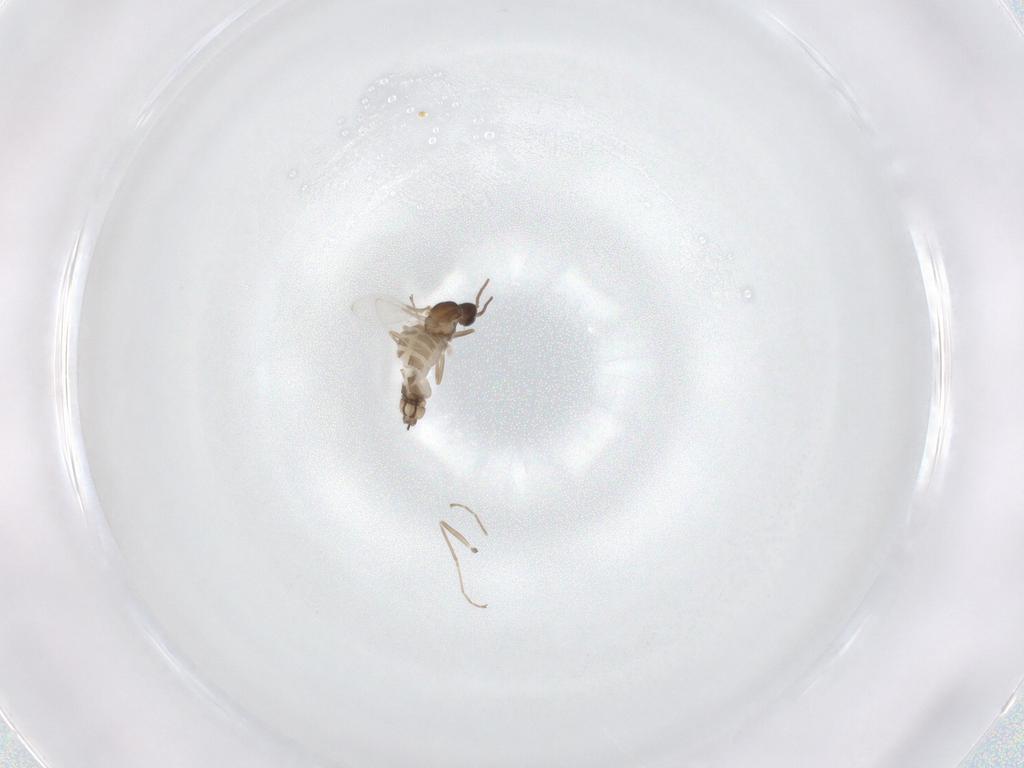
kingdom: Animalia
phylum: Arthropoda
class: Insecta
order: Diptera
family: Cecidomyiidae
